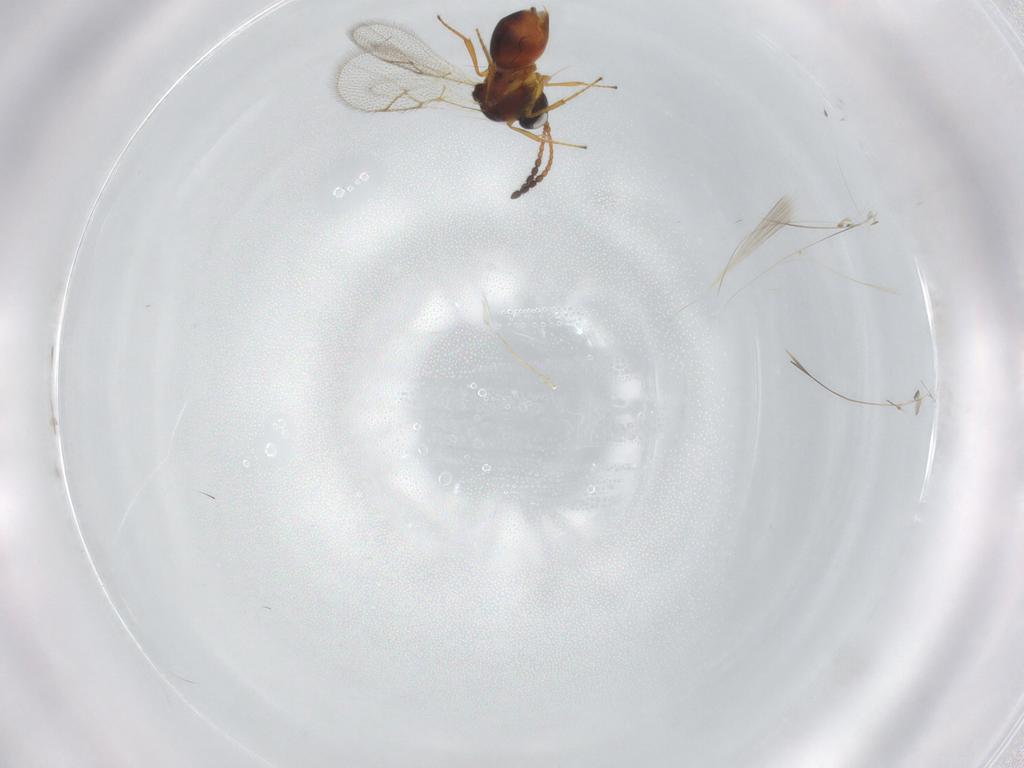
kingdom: Animalia
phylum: Arthropoda
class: Insecta
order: Hymenoptera
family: Figitidae
